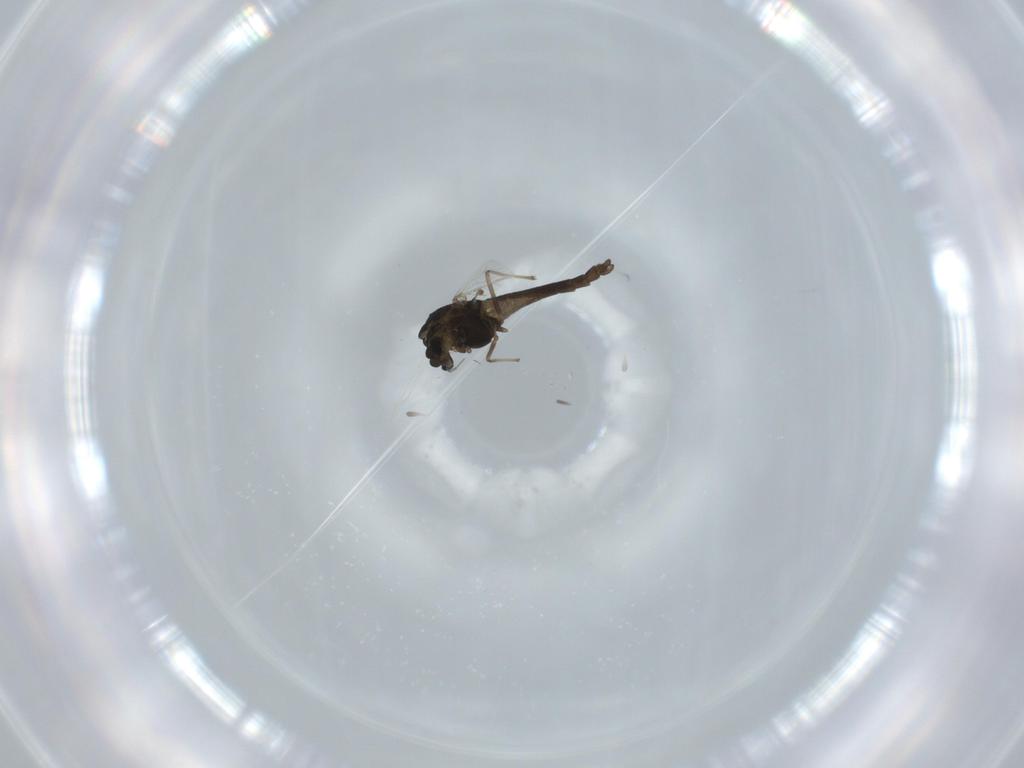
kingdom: Animalia
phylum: Arthropoda
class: Insecta
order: Diptera
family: Chironomidae
